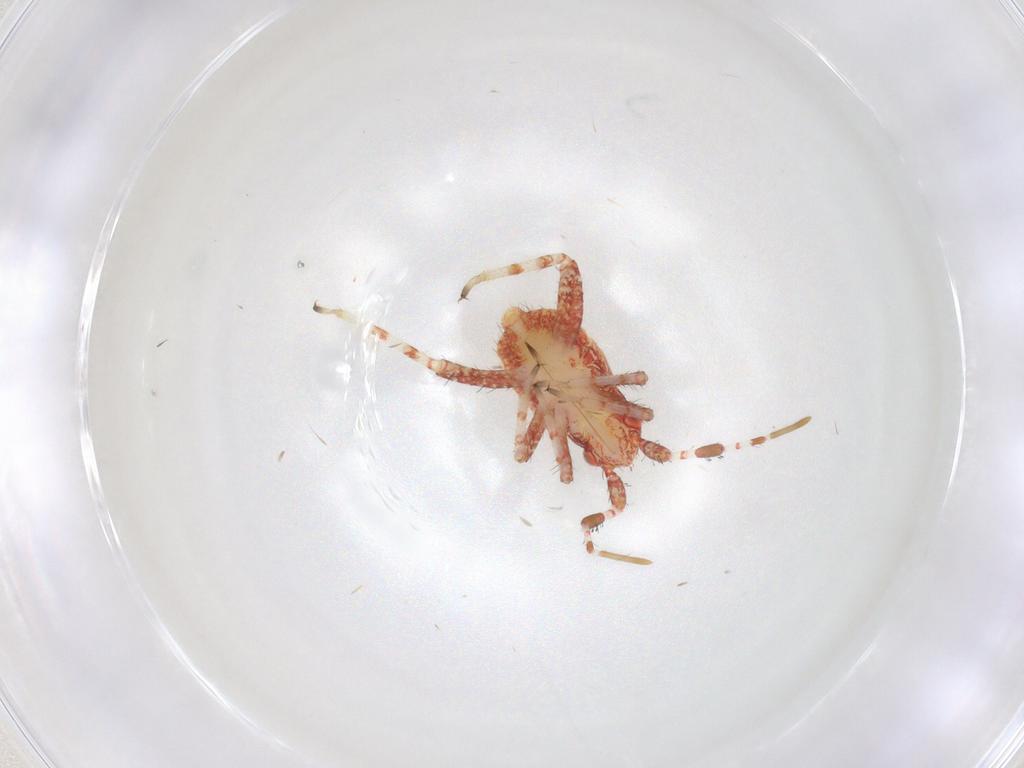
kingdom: Animalia
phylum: Arthropoda
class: Insecta
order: Hemiptera
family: Miridae
